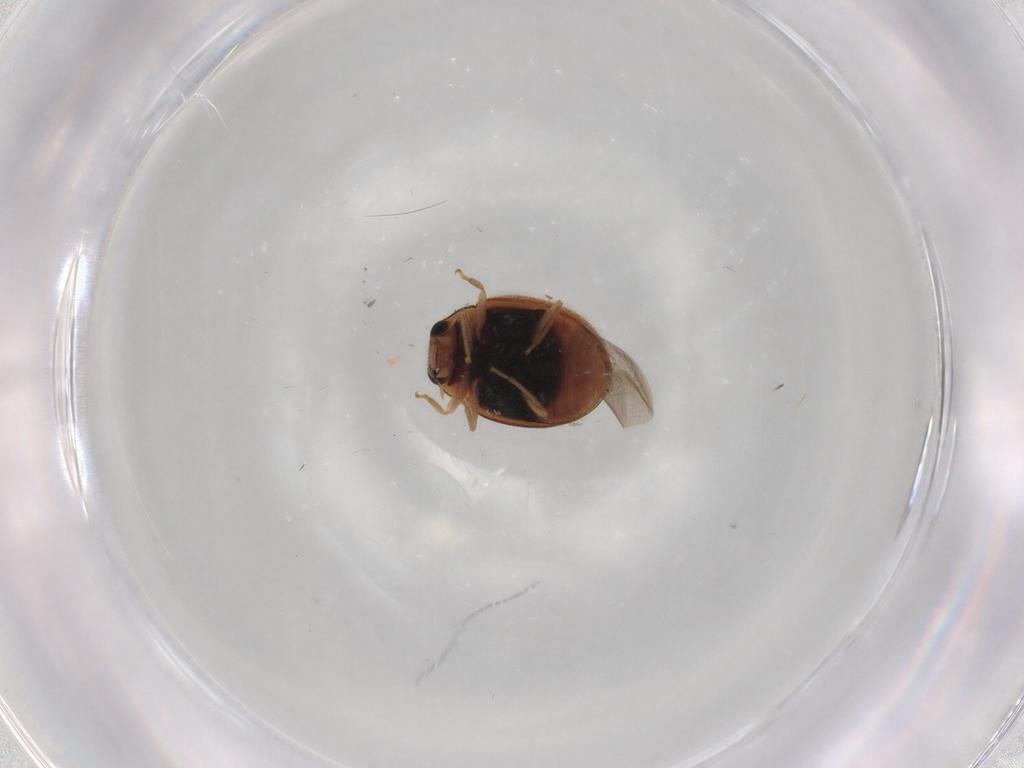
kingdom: Animalia
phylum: Arthropoda
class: Insecta
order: Coleoptera
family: Coccinellidae
